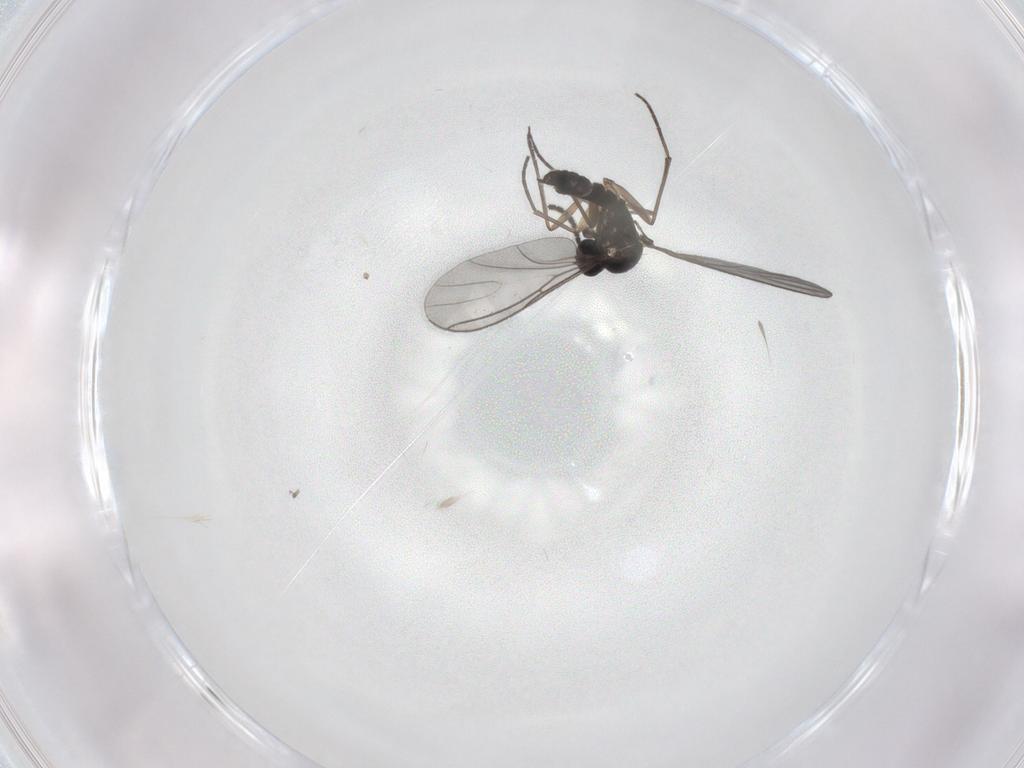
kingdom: Animalia
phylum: Arthropoda
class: Insecta
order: Diptera
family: Sciaridae
